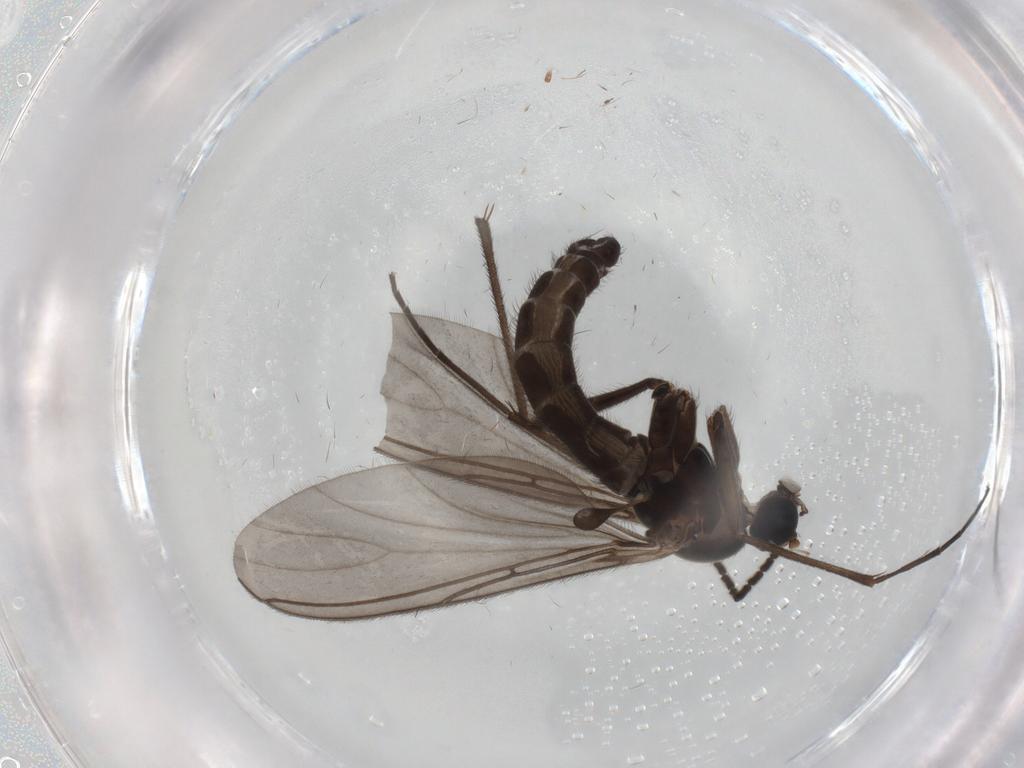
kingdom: Animalia
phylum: Arthropoda
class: Insecta
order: Diptera
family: Sciaridae
